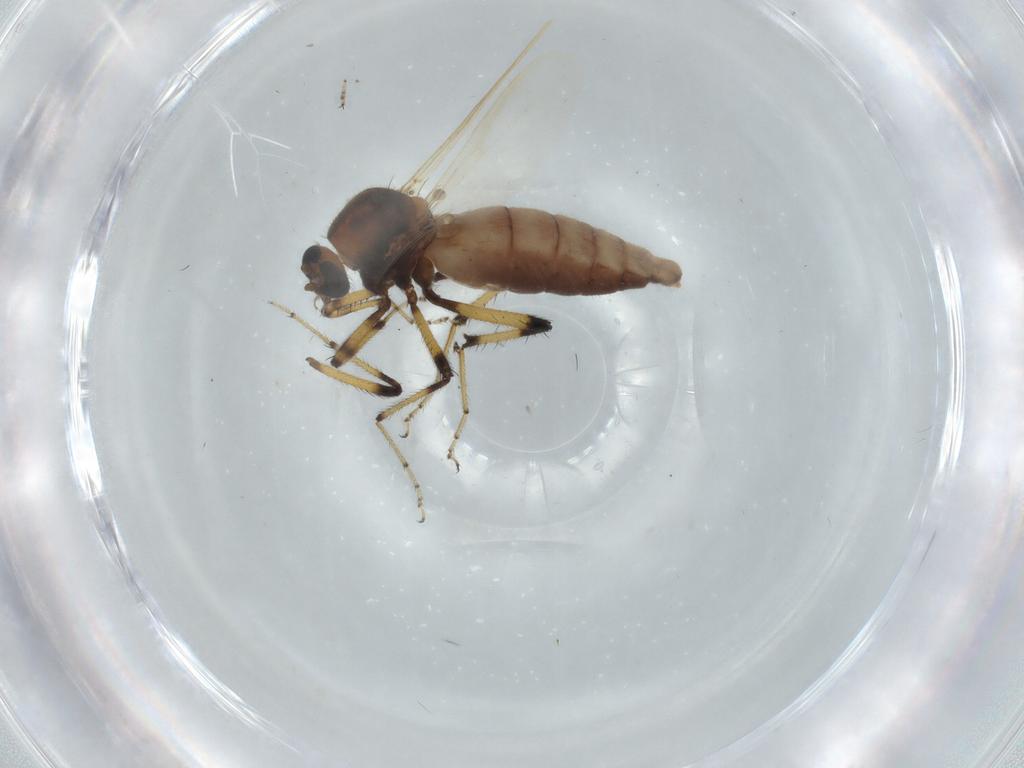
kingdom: Animalia
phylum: Arthropoda
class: Insecta
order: Diptera
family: Ceratopogonidae
